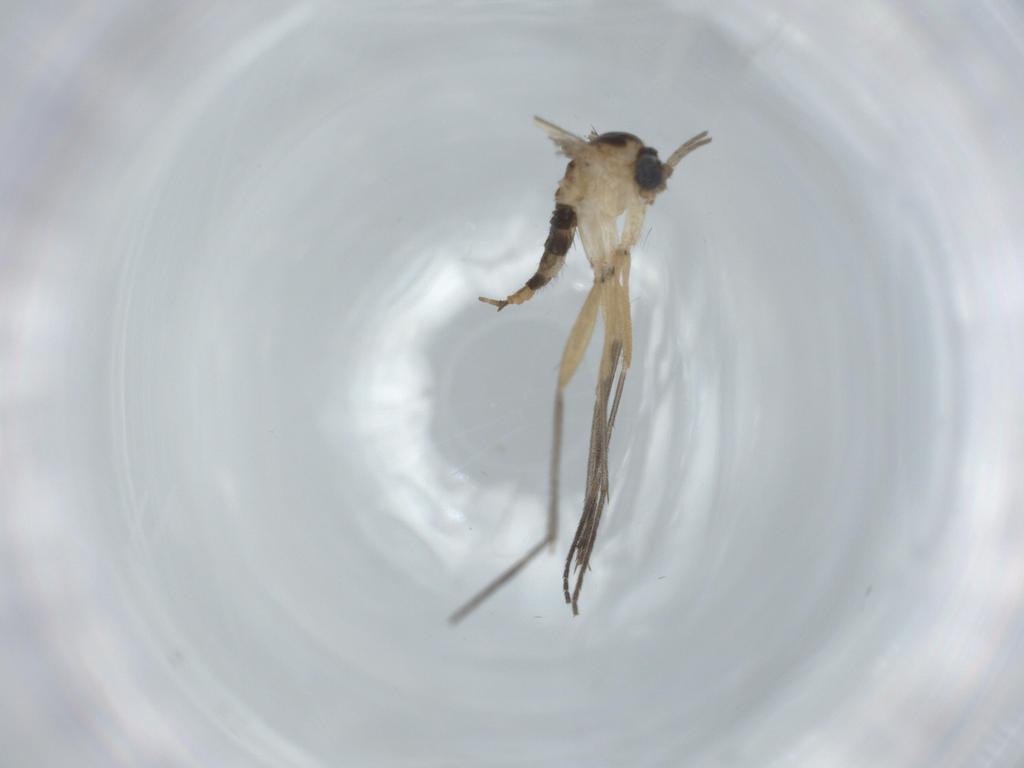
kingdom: Animalia
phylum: Arthropoda
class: Insecta
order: Diptera
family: Sciaridae
